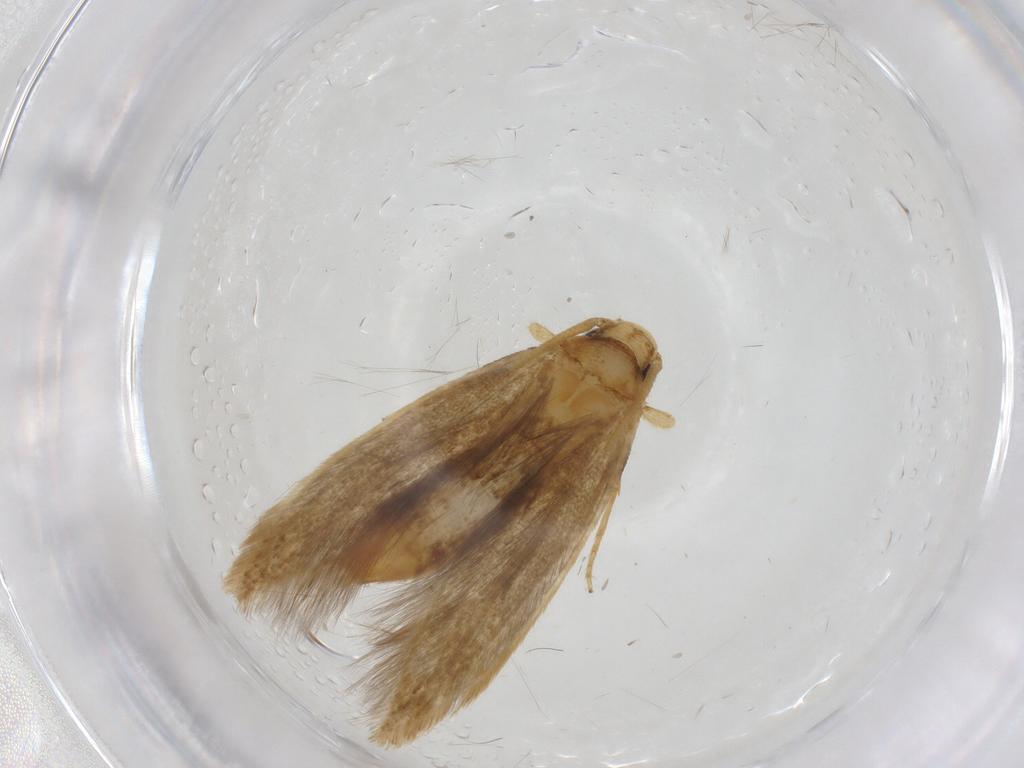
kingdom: Animalia
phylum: Arthropoda
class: Insecta
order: Lepidoptera
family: Tineidae
